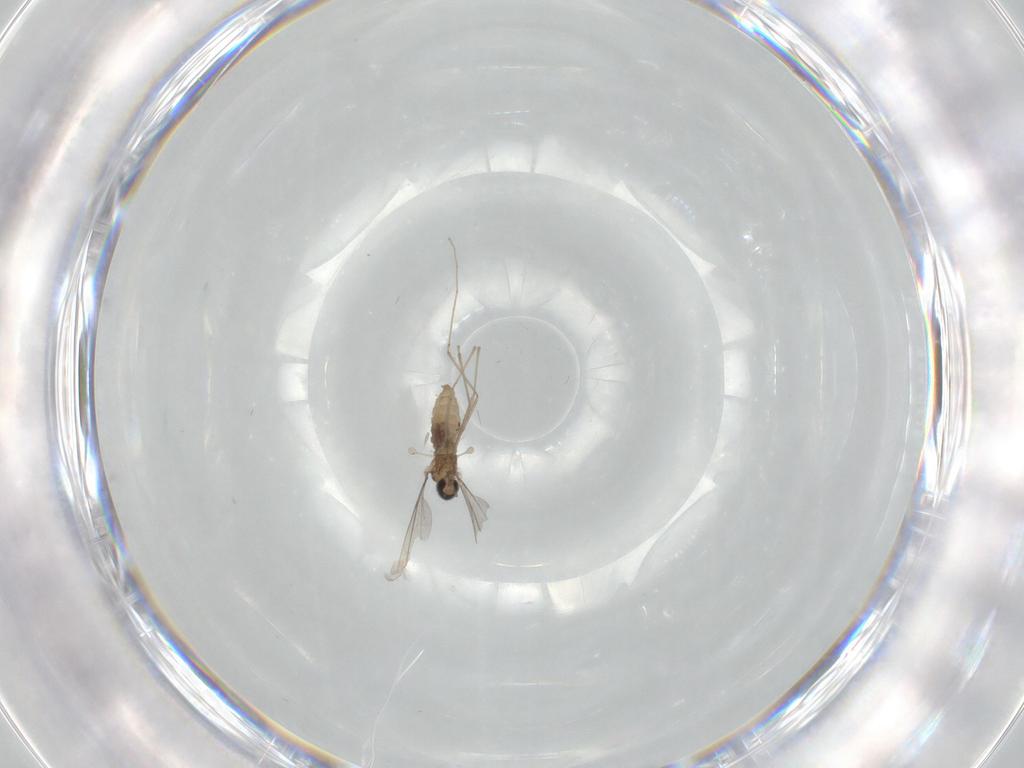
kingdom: Animalia
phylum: Arthropoda
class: Insecta
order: Diptera
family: Cecidomyiidae
